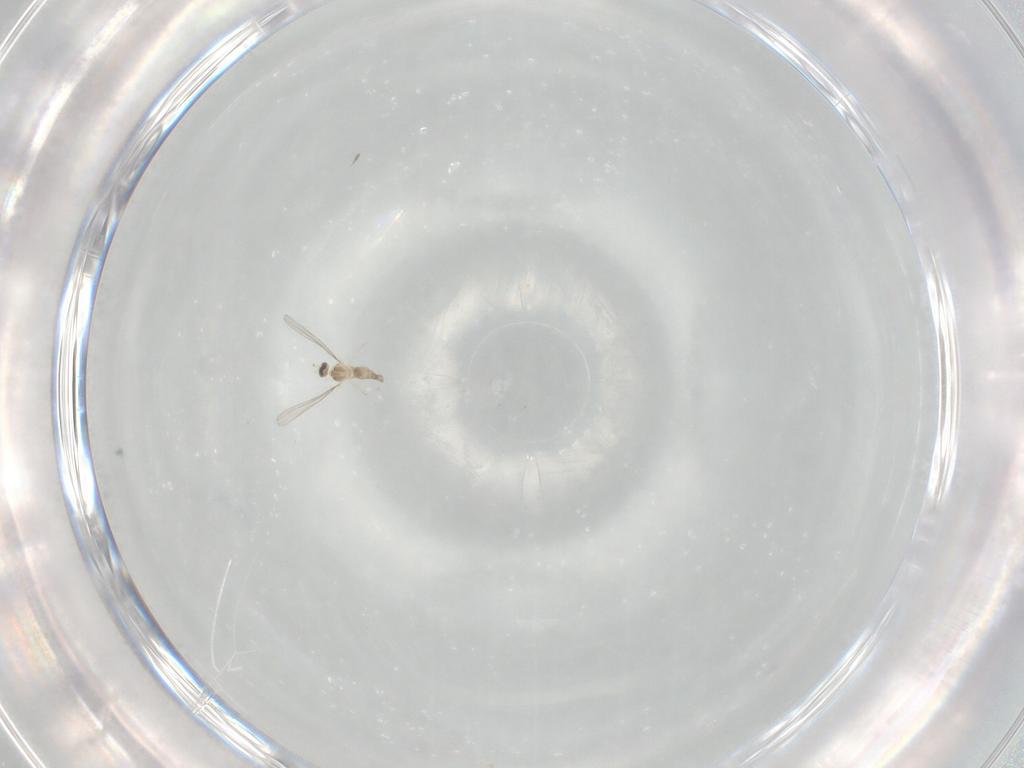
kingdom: Animalia
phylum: Arthropoda
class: Insecta
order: Diptera
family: Cecidomyiidae
